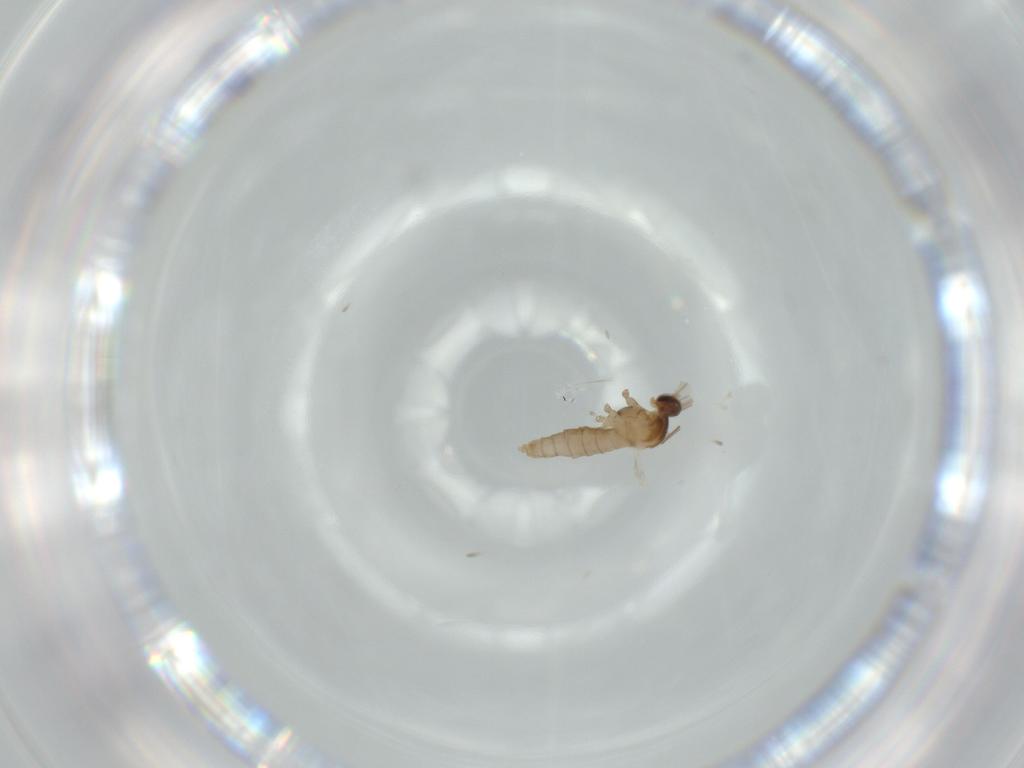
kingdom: Animalia
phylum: Arthropoda
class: Insecta
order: Diptera
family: Cecidomyiidae
